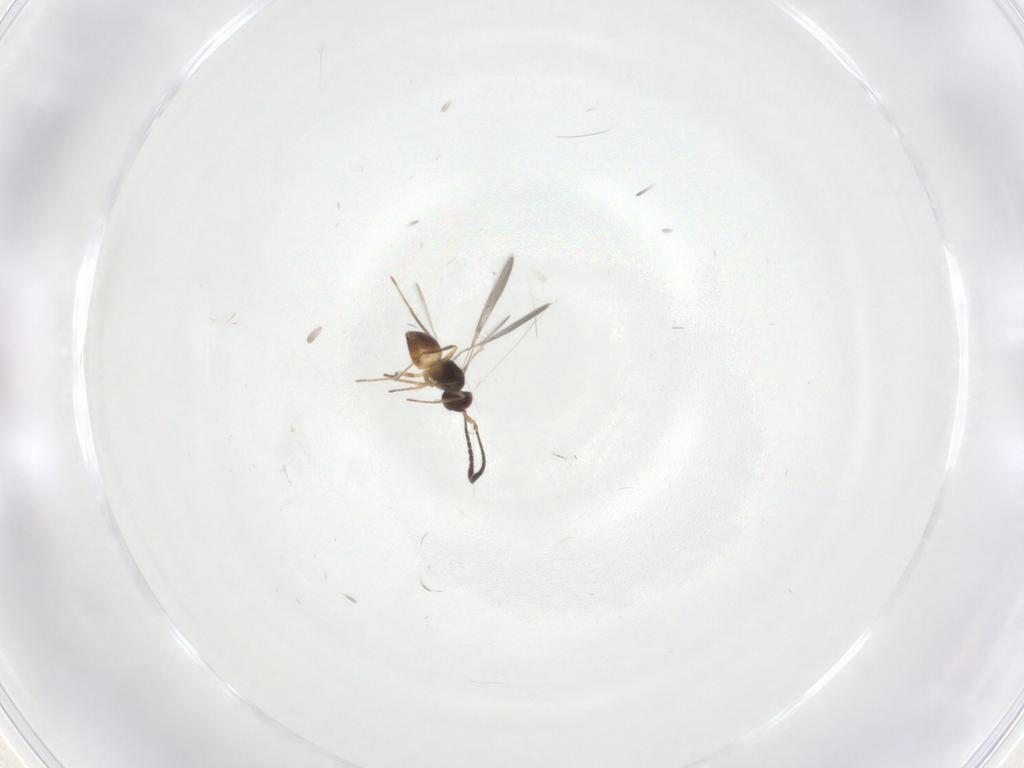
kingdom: Animalia
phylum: Arthropoda
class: Insecta
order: Hymenoptera
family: Mymaridae
